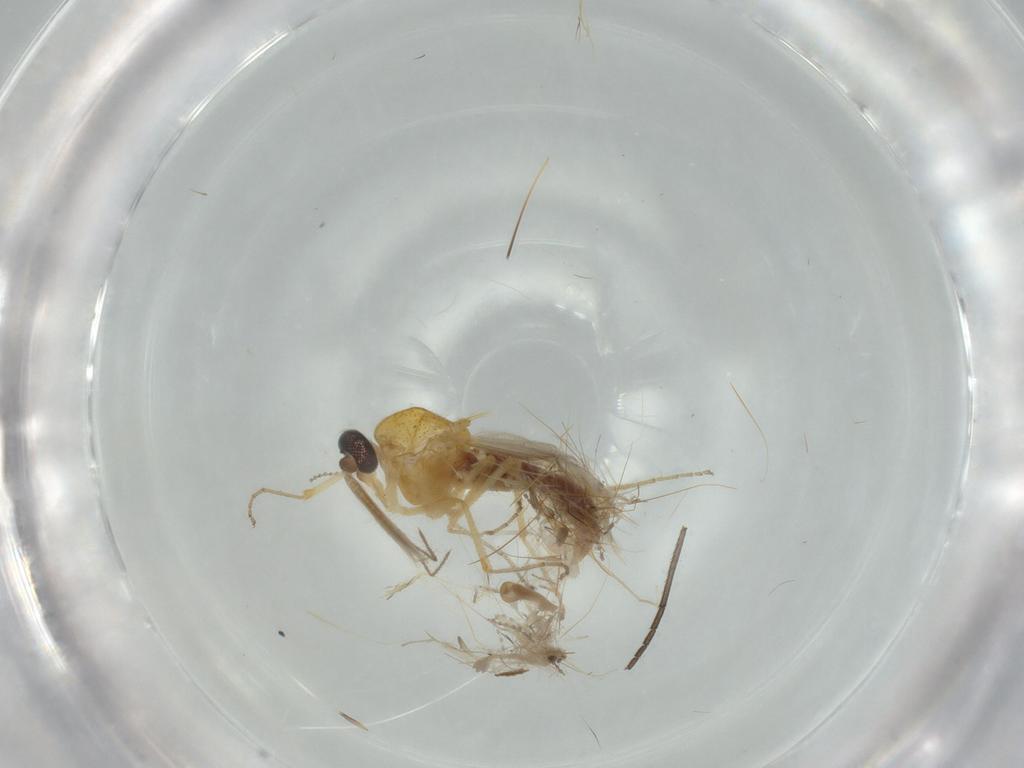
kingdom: Animalia
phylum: Arthropoda
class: Insecta
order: Diptera
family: Ceratopogonidae
